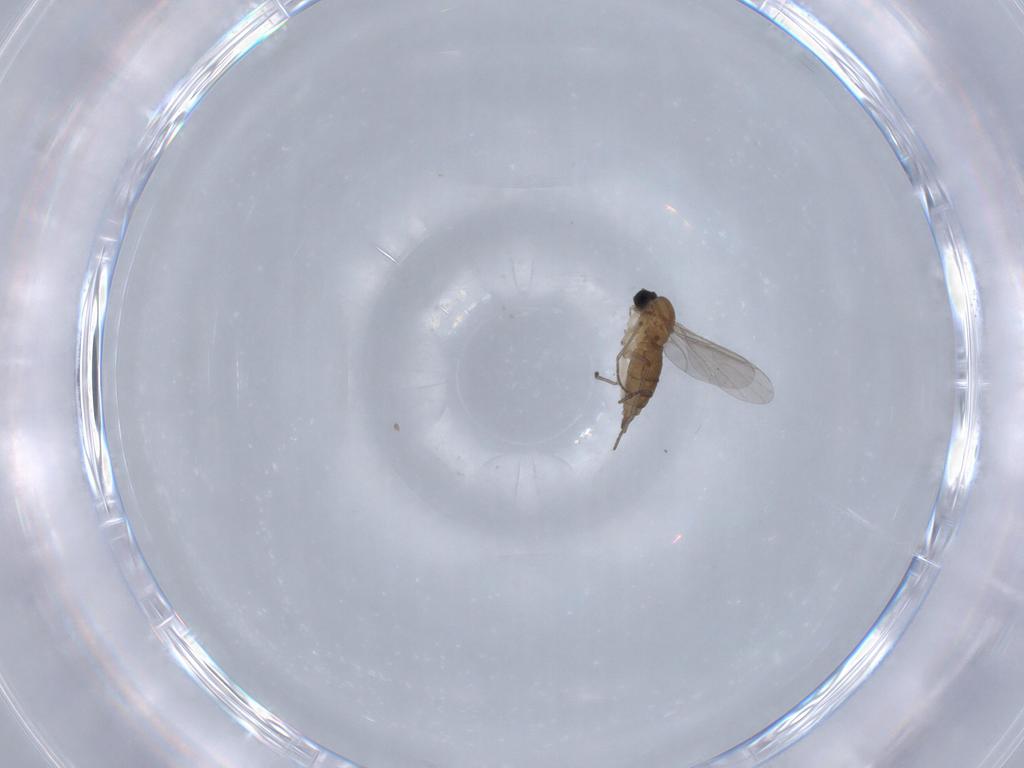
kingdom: Animalia
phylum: Arthropoda
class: Insecta
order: Diptera
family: Sciaridae
